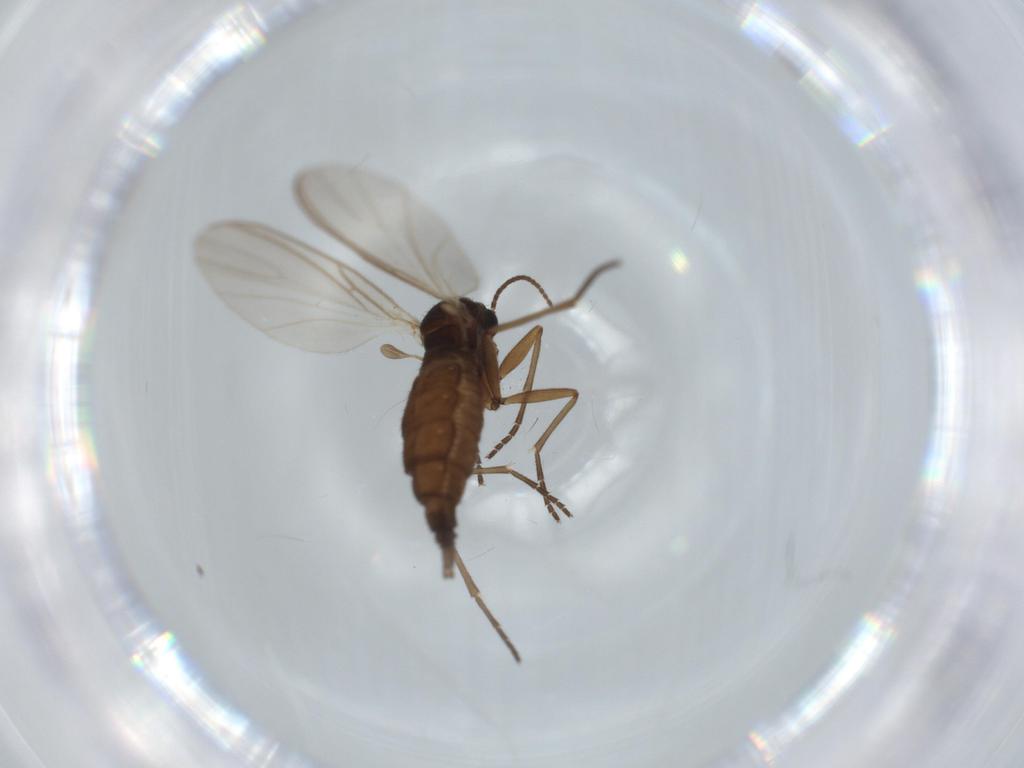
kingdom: Animalia
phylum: Arthropoda
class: Insecta
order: Diptera
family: Sciaridae
